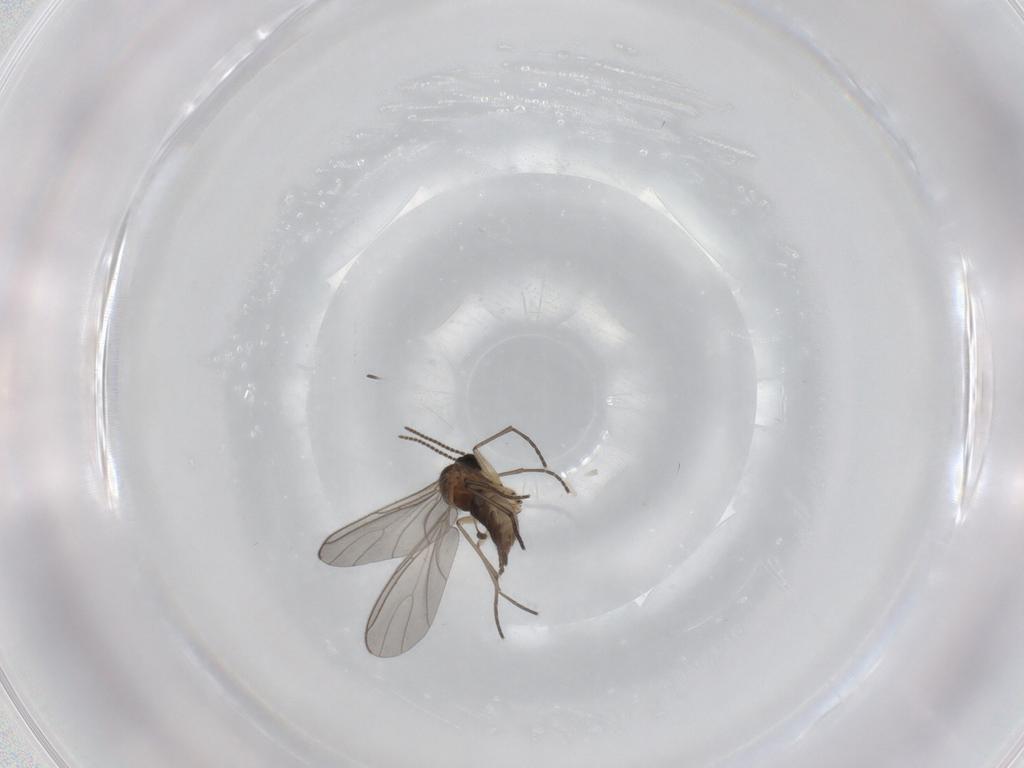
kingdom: Animalia
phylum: Arthropoda
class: Insecta
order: Diptera
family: Sciaridae
